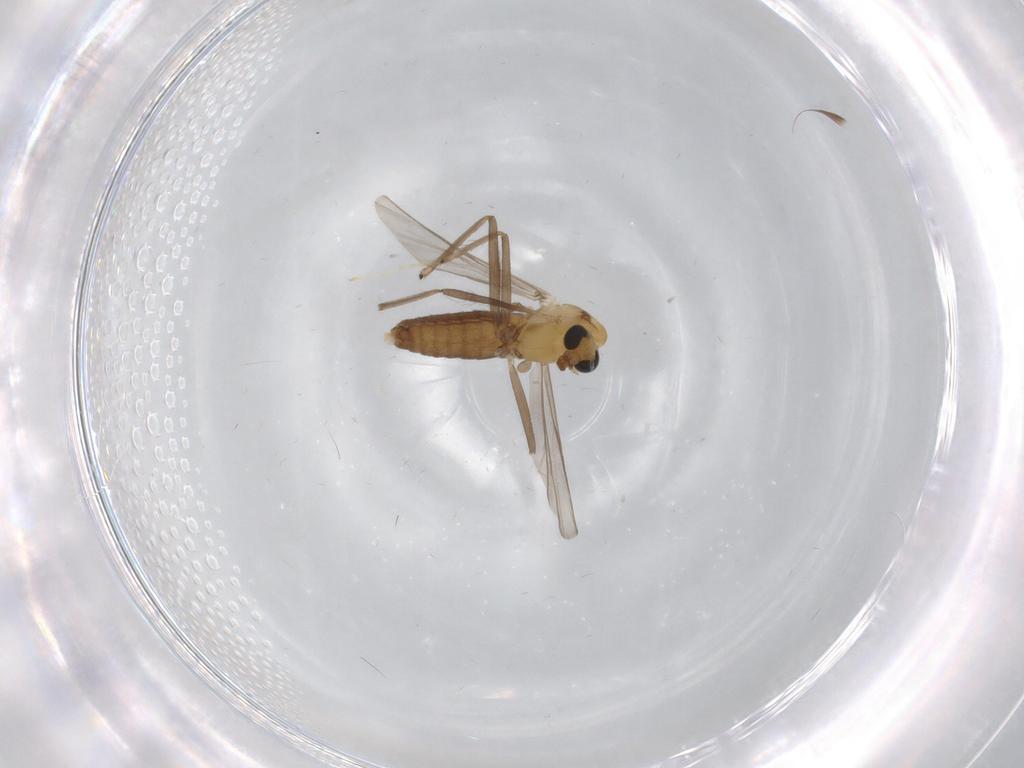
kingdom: Animalia
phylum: Arthropoda
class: Insecta
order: Diptera
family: Chironomidae
